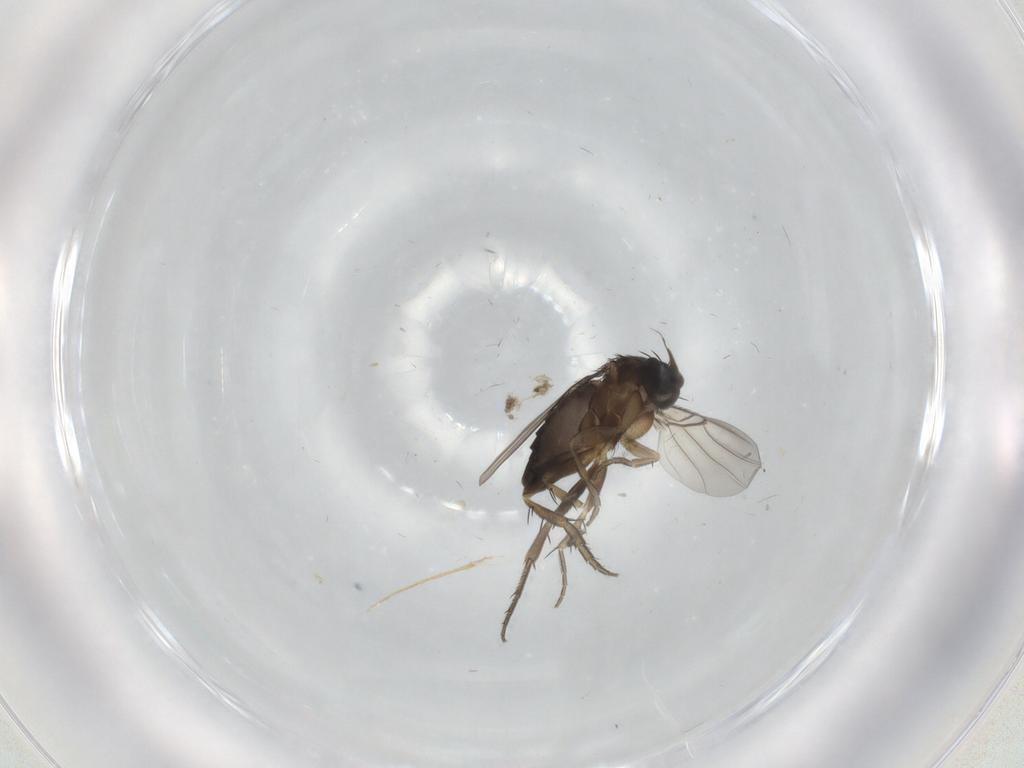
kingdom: Animalia
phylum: Arthropoda
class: Insecta
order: Diptera
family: Phoridae
